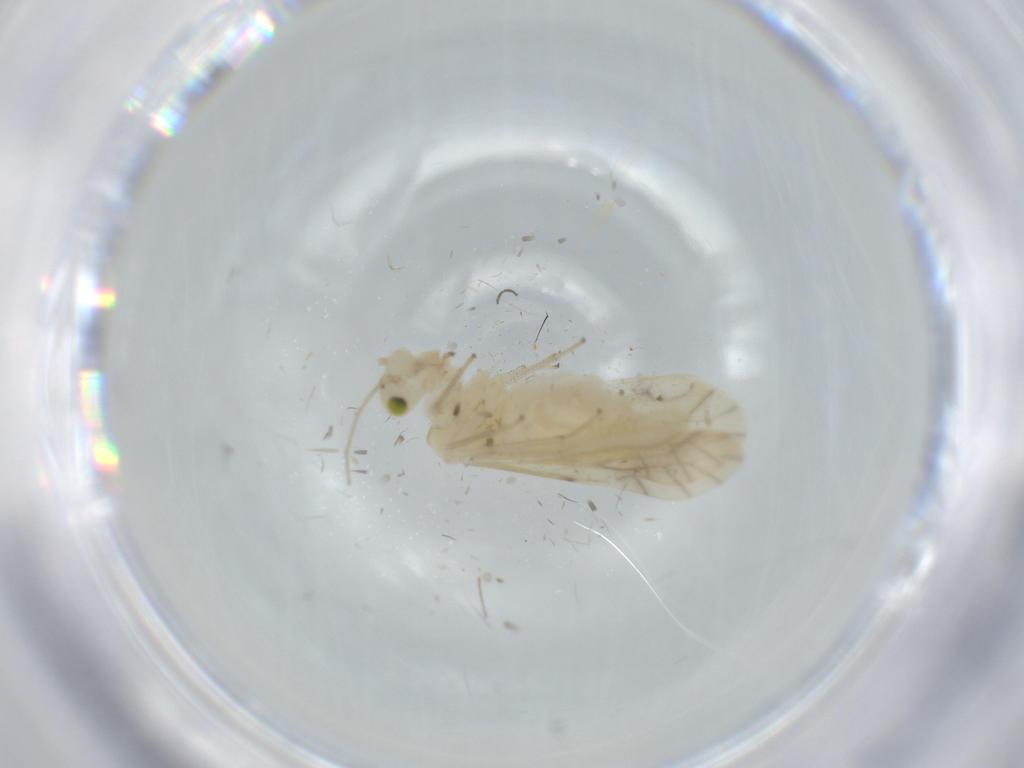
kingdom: Animalia
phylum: Arthropoda
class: Insecta
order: Psocodea
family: Caeciliusidae
